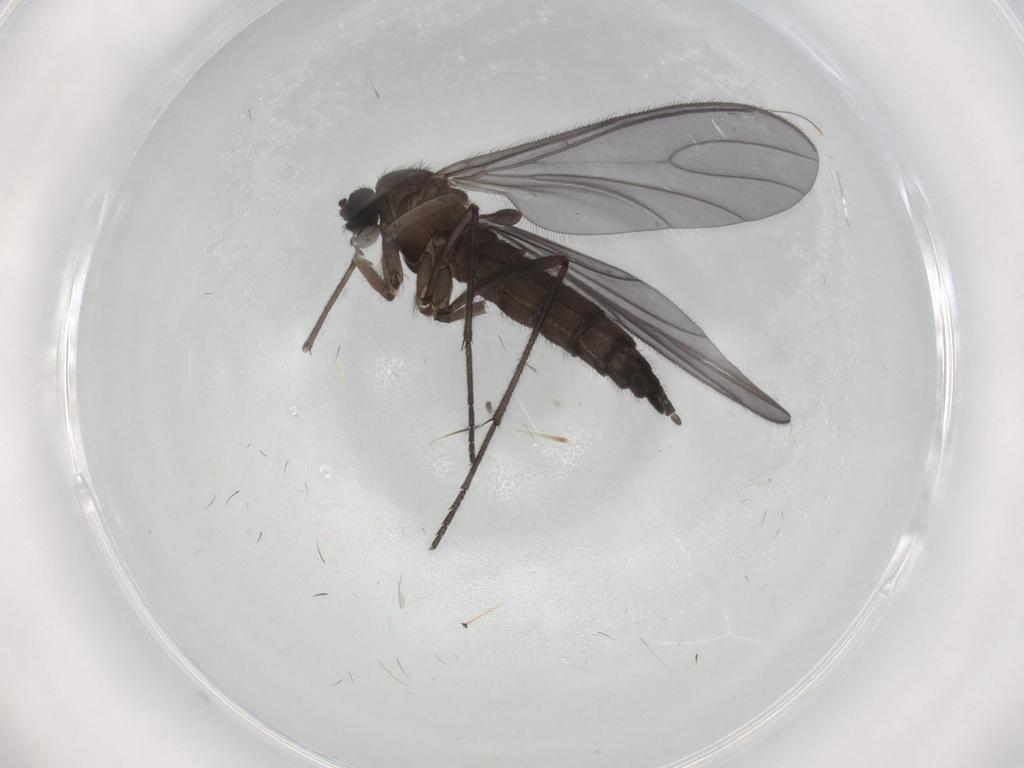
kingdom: Animalia
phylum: Arthropoda
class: Insecta
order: Diptera
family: Sciaridae
